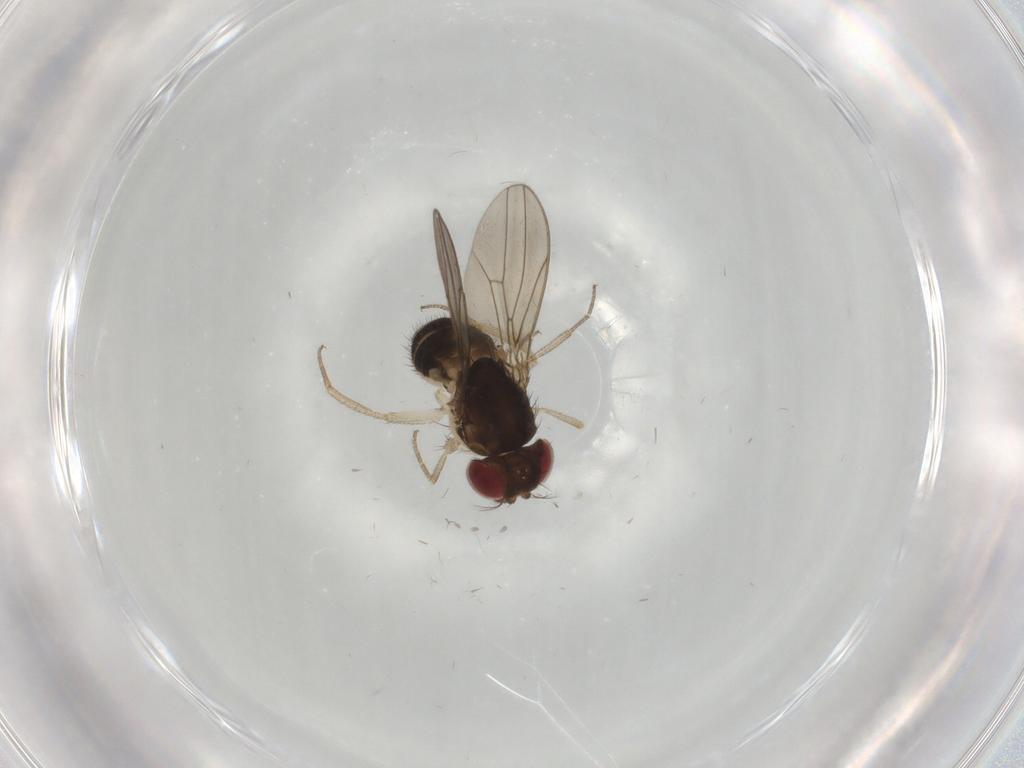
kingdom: Animalia
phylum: Arthropoda
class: Insecta
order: Diptera
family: Drosophilidae
